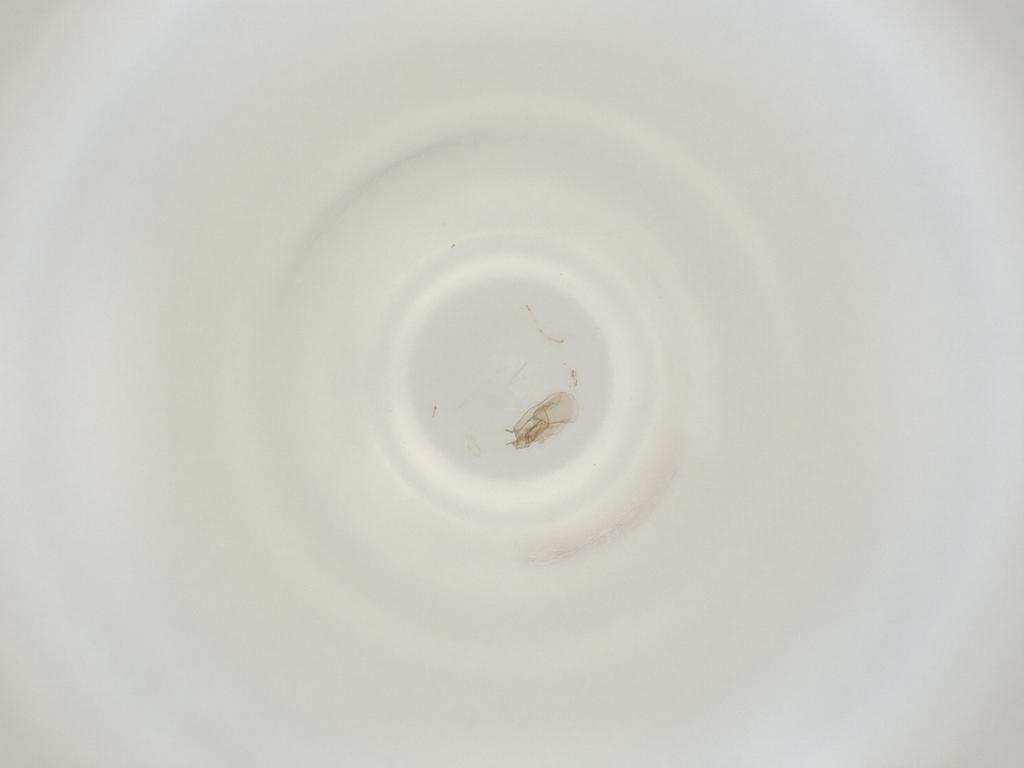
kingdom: Animalia
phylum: Arthropoda
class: Insecta
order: Diptera
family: Cecidomyiidae
